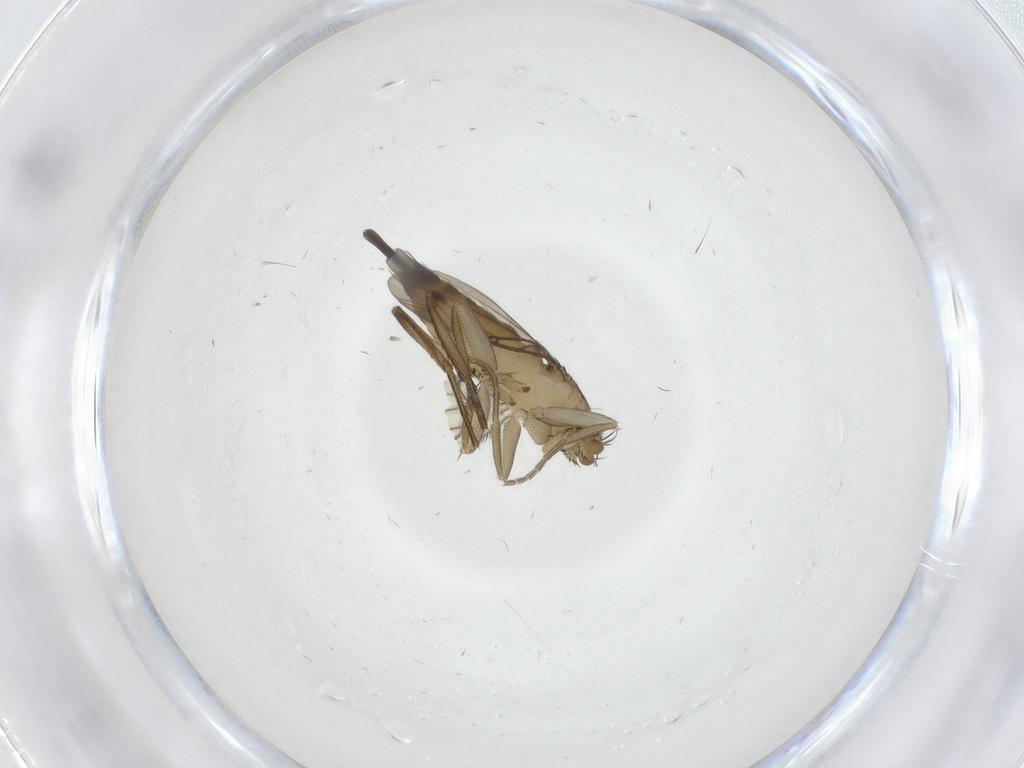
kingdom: Animalia
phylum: Arthropoda
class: Insecta
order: Diptera
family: Phoridae
